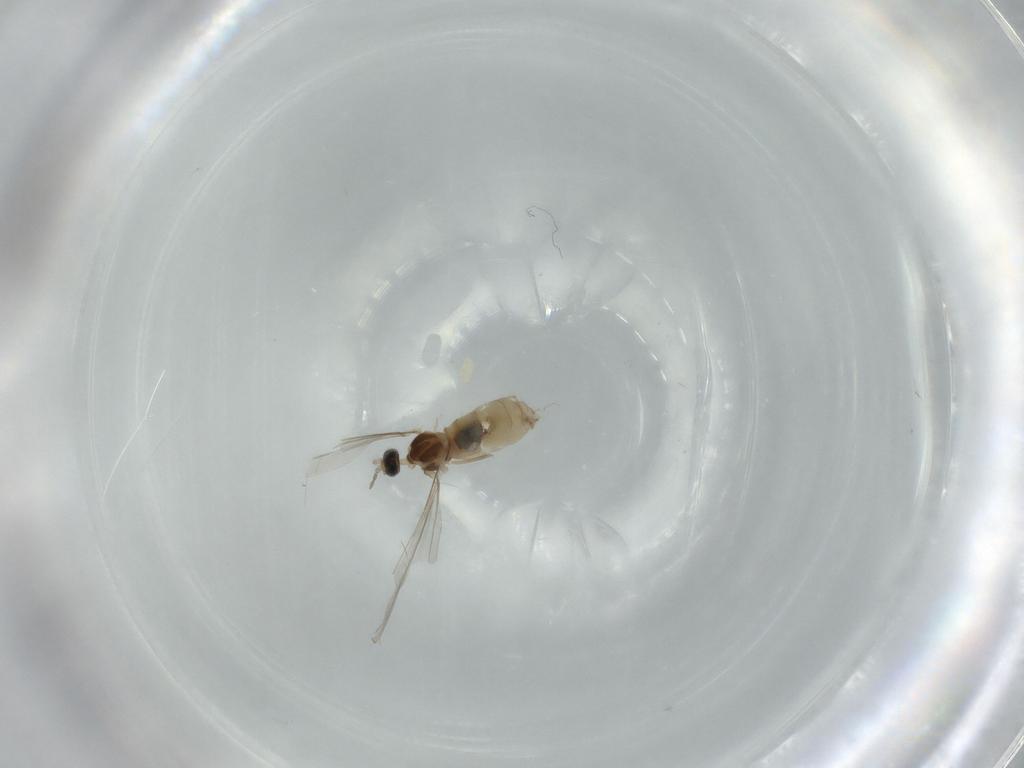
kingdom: Animalia
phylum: Arthropoda
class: Insecta
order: Ephemeroptera
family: Caenidae
